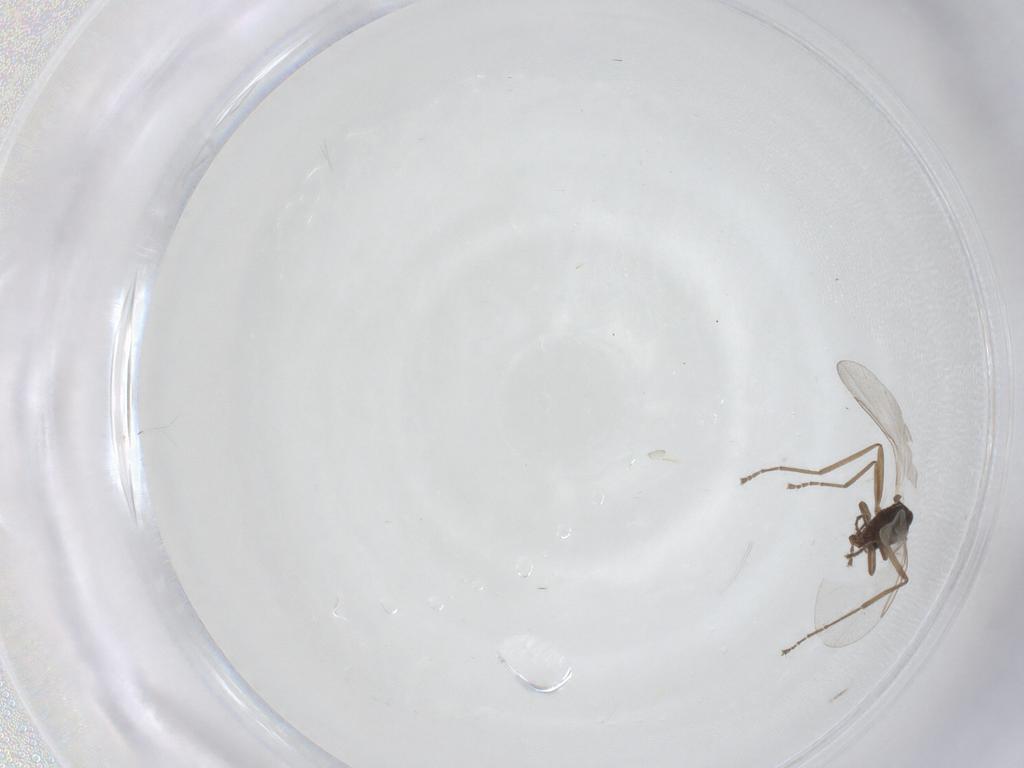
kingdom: Animalia
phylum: Arthropoda
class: Insecta
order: Diptera
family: Cecidomyiidae
